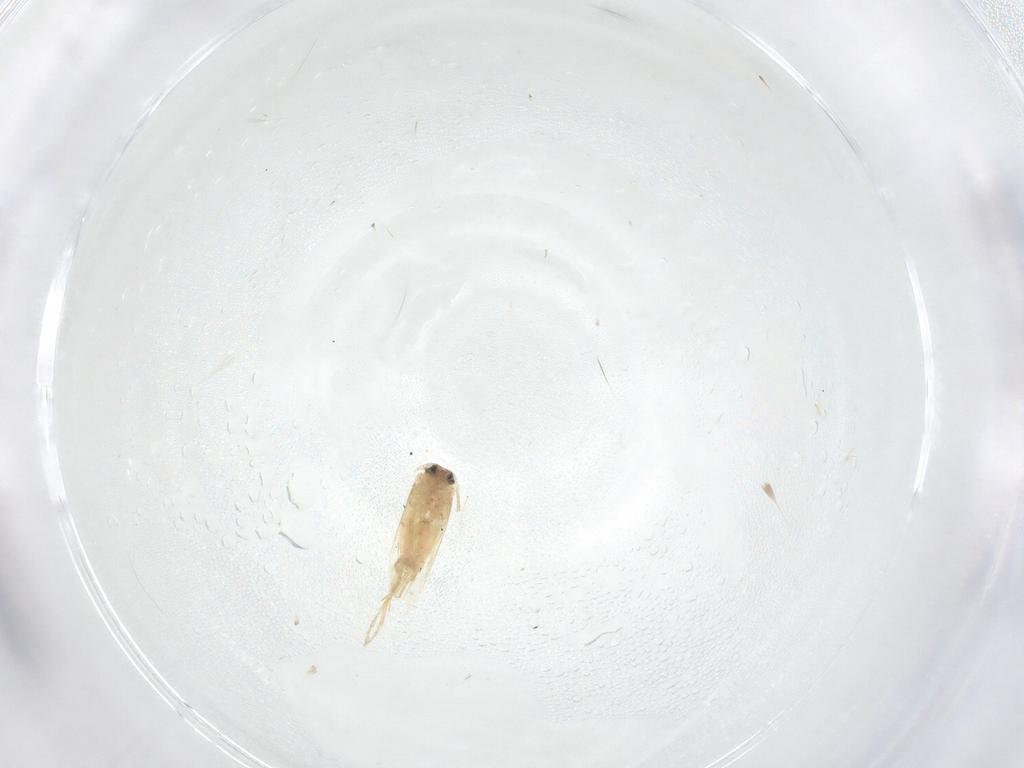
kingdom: Animalia
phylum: Arthropoda
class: Insecta
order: Lepidoptera
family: Nepticulidae
